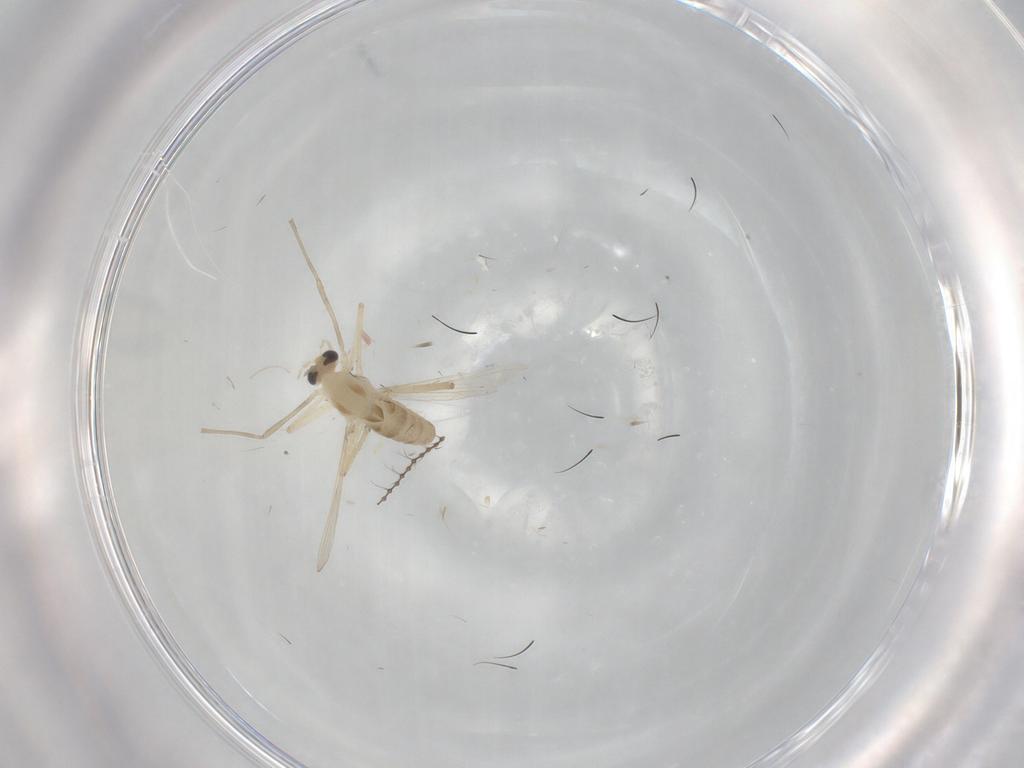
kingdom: Animalia
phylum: Arthropoda
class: Insecta
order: Diptera
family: Chironomidae
